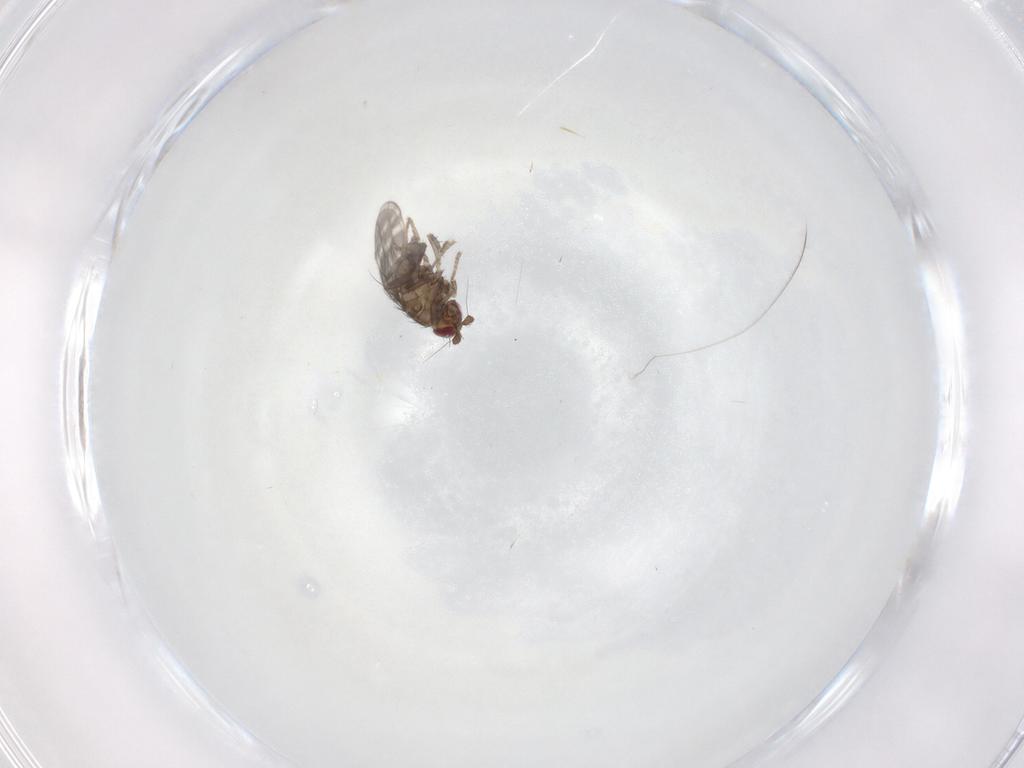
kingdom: Animalia
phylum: Arthropoda
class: Insecta
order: Diptera
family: Sphaeroceridae
